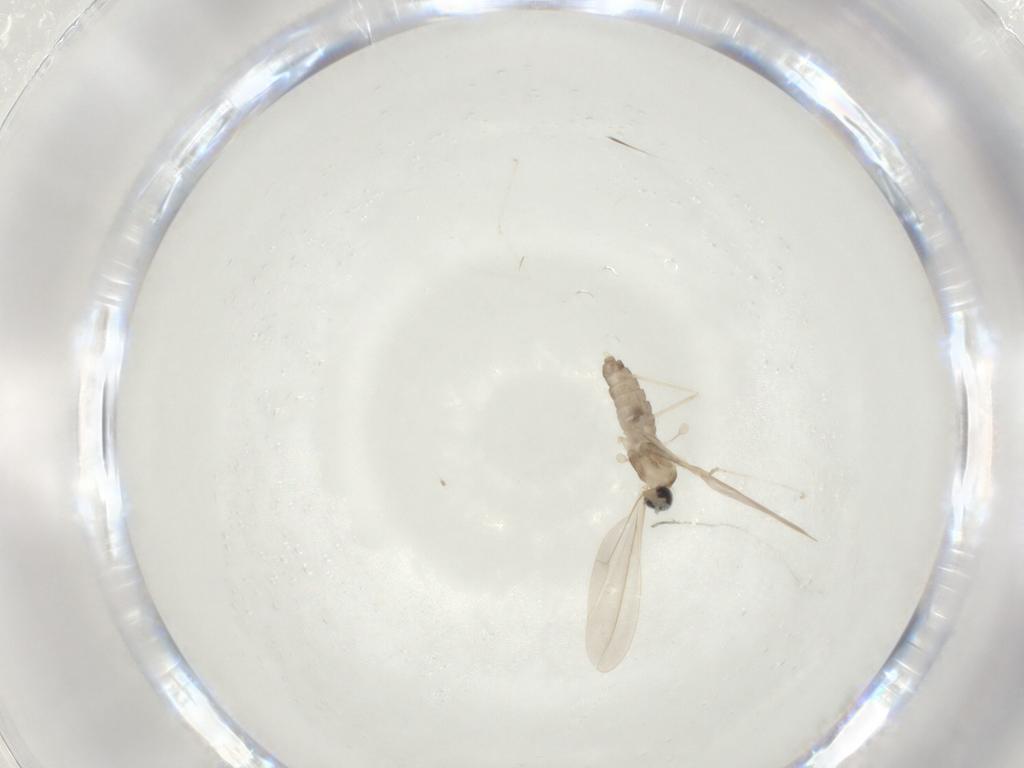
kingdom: Animalia
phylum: Arthropoda
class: Insecta
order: Diptera
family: Cecidomyiidae
